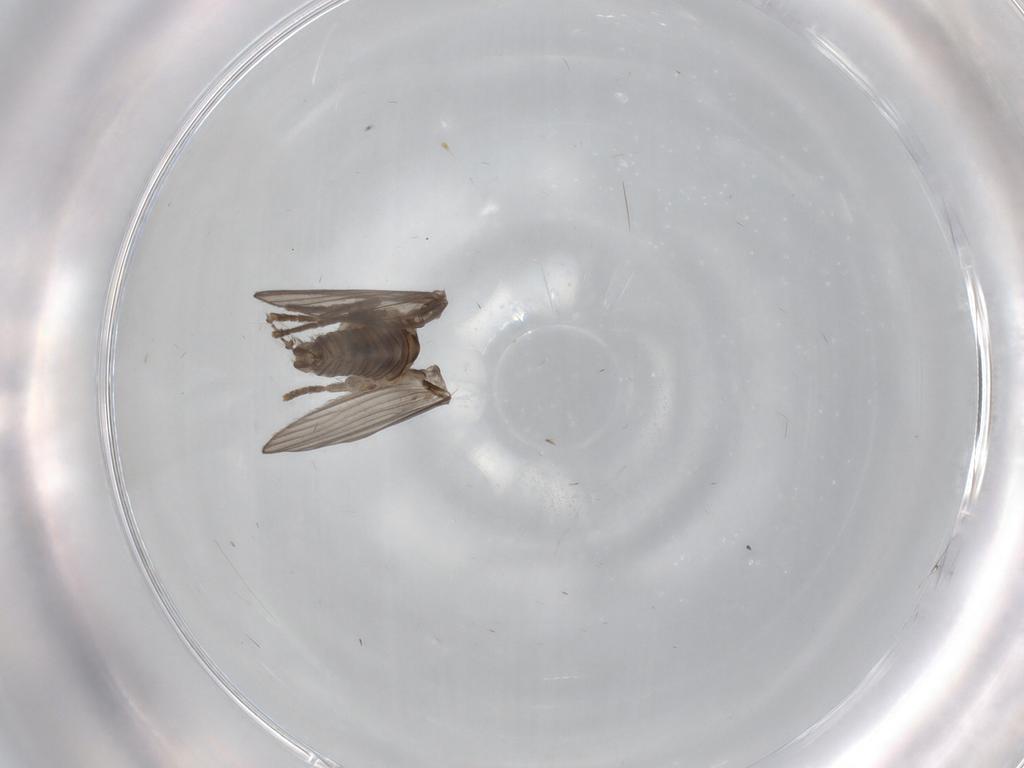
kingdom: Animalia
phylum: Arthropoda
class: Insecta
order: Diptera
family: Psychodidae
